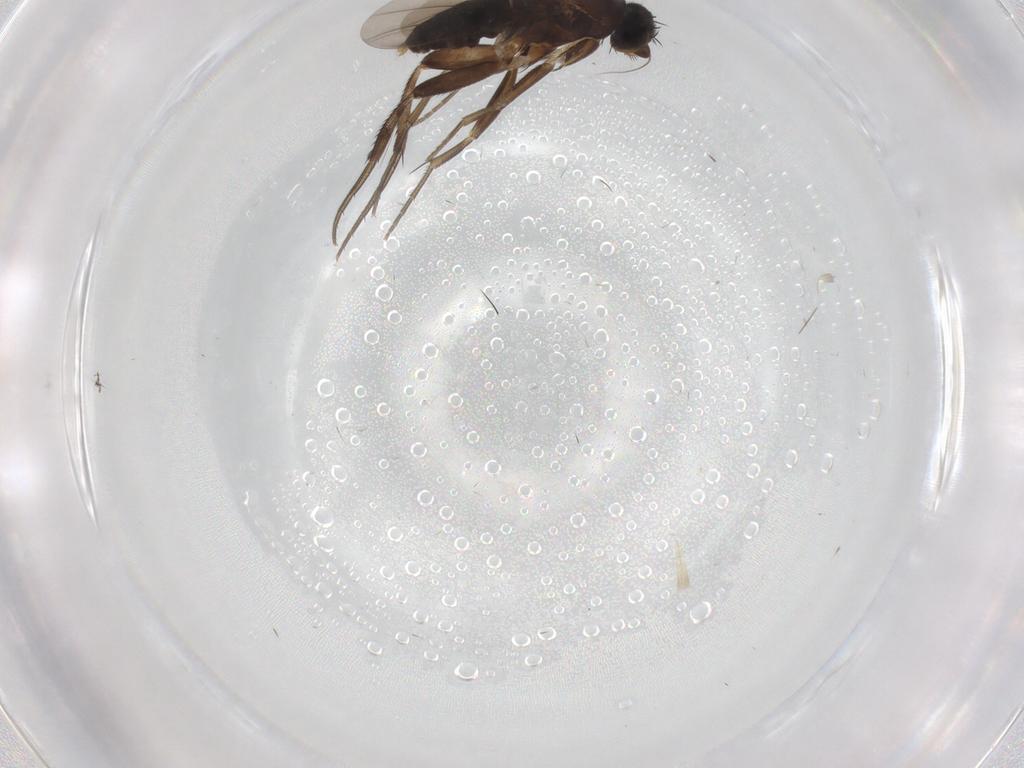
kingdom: Animalia
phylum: Arthropoda
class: Insecta
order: Diptera
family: Phoridae
